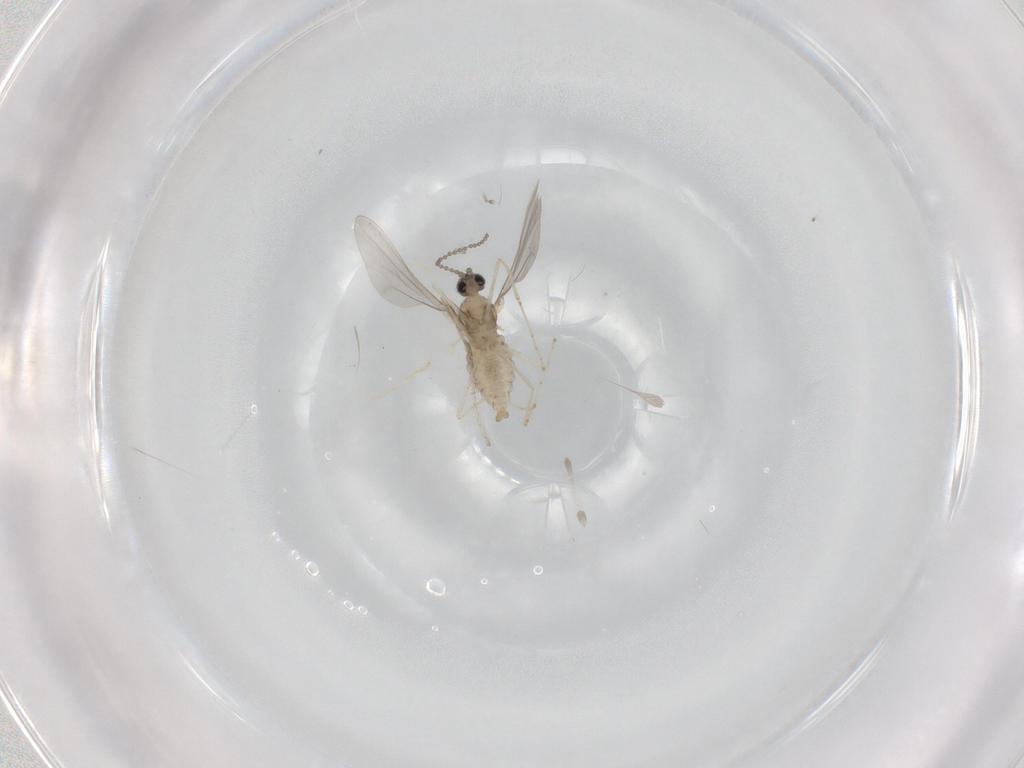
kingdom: Animalia
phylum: Arthropoda
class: Insecta
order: Diptera
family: Cecidomyiidae
